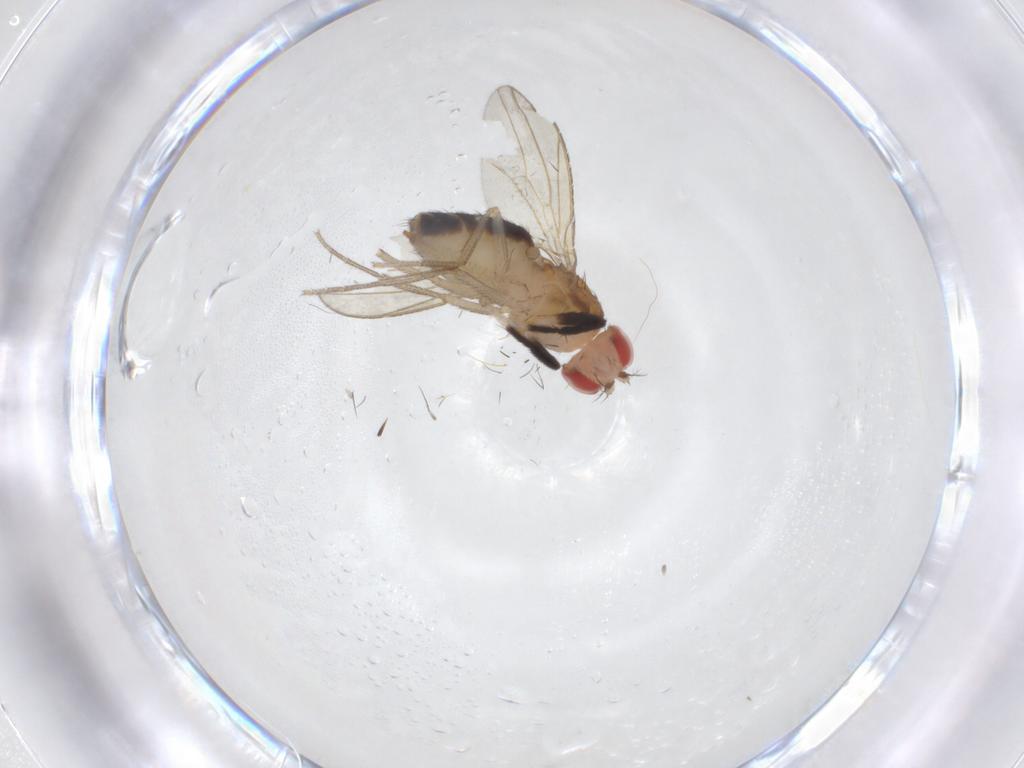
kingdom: Animalia
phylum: Arthropoda
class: Insecta
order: Diptera
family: Drosophilidae
